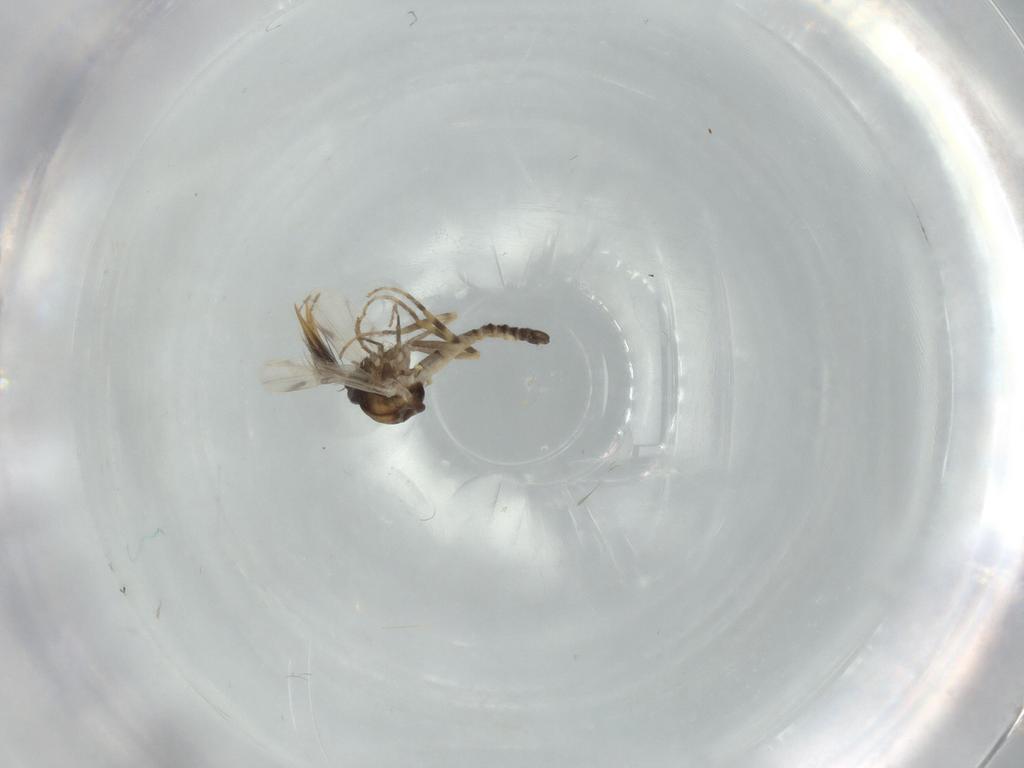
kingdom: Animalia
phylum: Arthropoda
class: Insecta
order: Diptera
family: Ceratopogonidae
